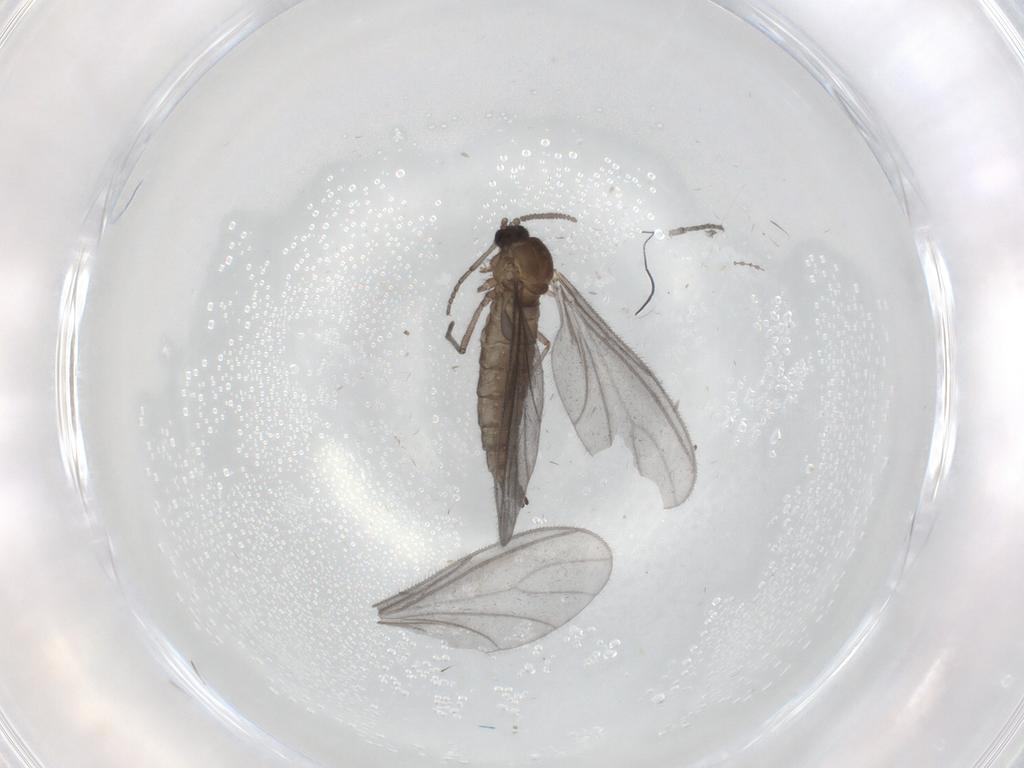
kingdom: Animalia
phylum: Arthropoda
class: Insecta
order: Diptera
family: Sciaridae
